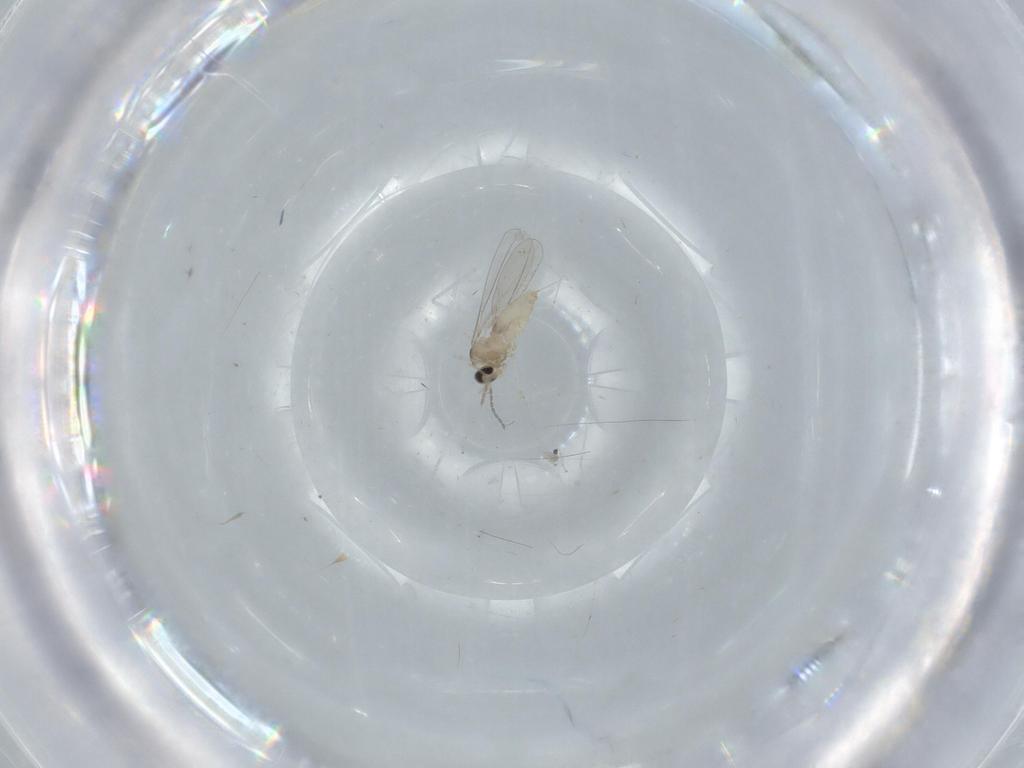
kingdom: Animalia
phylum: Arthropoda
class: Insecta
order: Diptera
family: Cecidomyiidae
